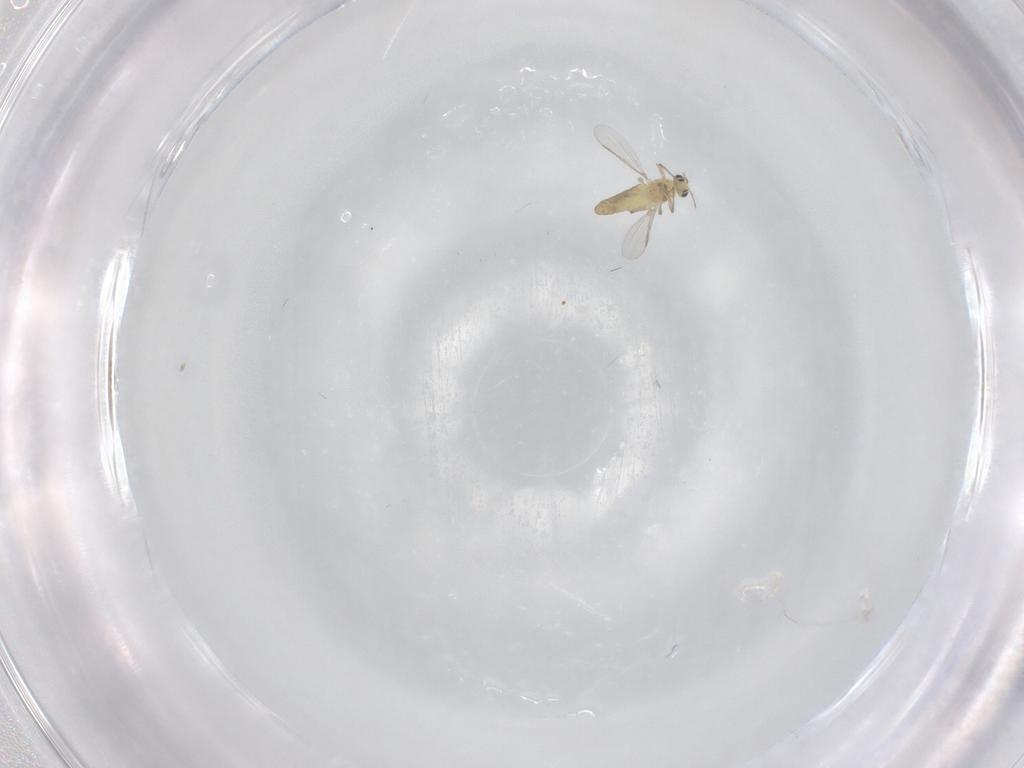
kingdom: Animalia
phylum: Arthropoda
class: Insecta
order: Diptera
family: Chironomidae
